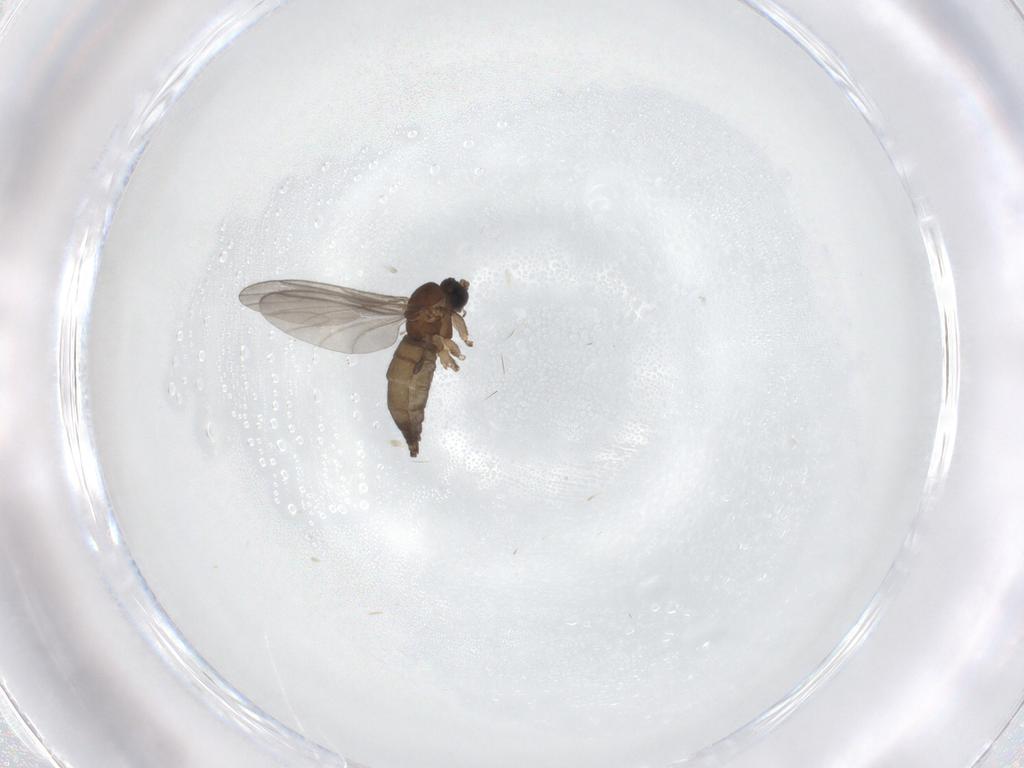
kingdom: Animalia
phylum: Arthropoda
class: Insecta
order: Diptera
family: Sciaridae
